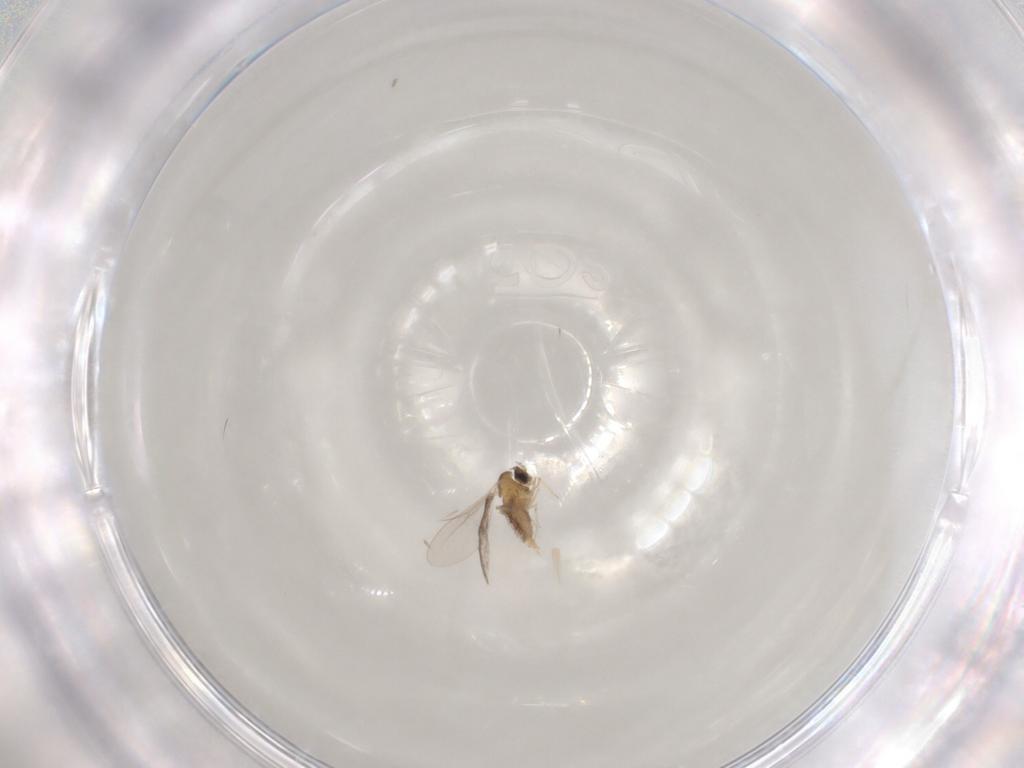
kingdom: Animalia
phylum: Arthropoda
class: Insecta
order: Diptera
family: Cecidomyiidae
